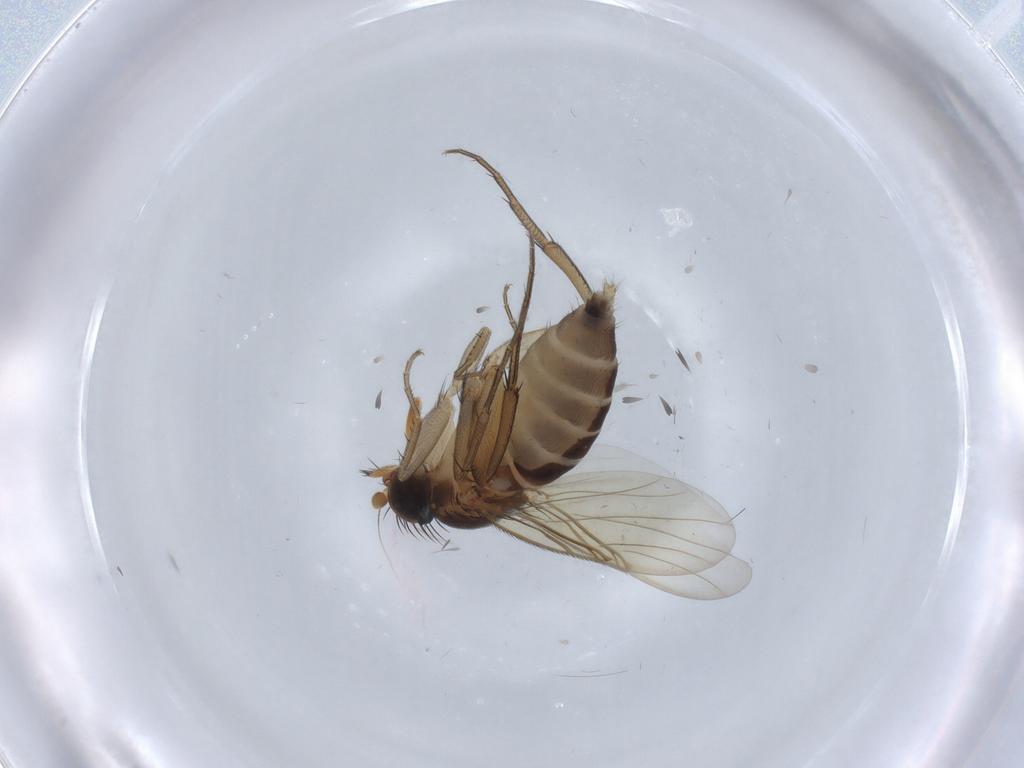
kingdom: Animalia
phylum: Arthropoda
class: Insecta
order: Diptera
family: Phoridae
